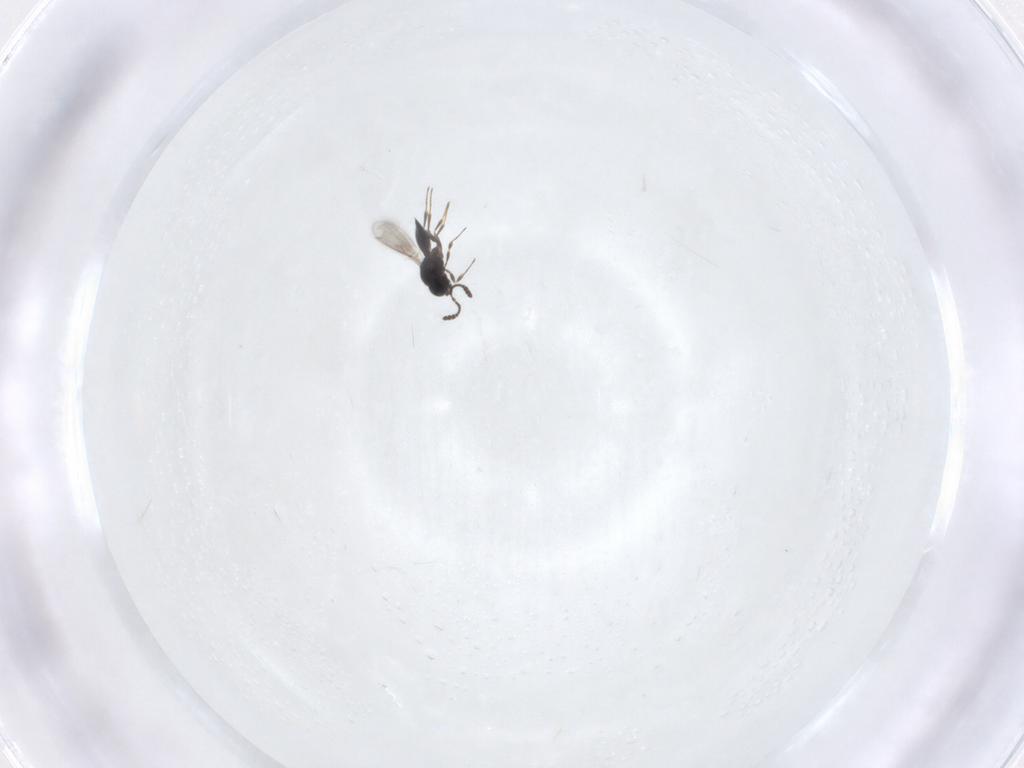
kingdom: Animalia
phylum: Arthropoda
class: Insecta
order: Hymenoptera
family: Scelionidae
